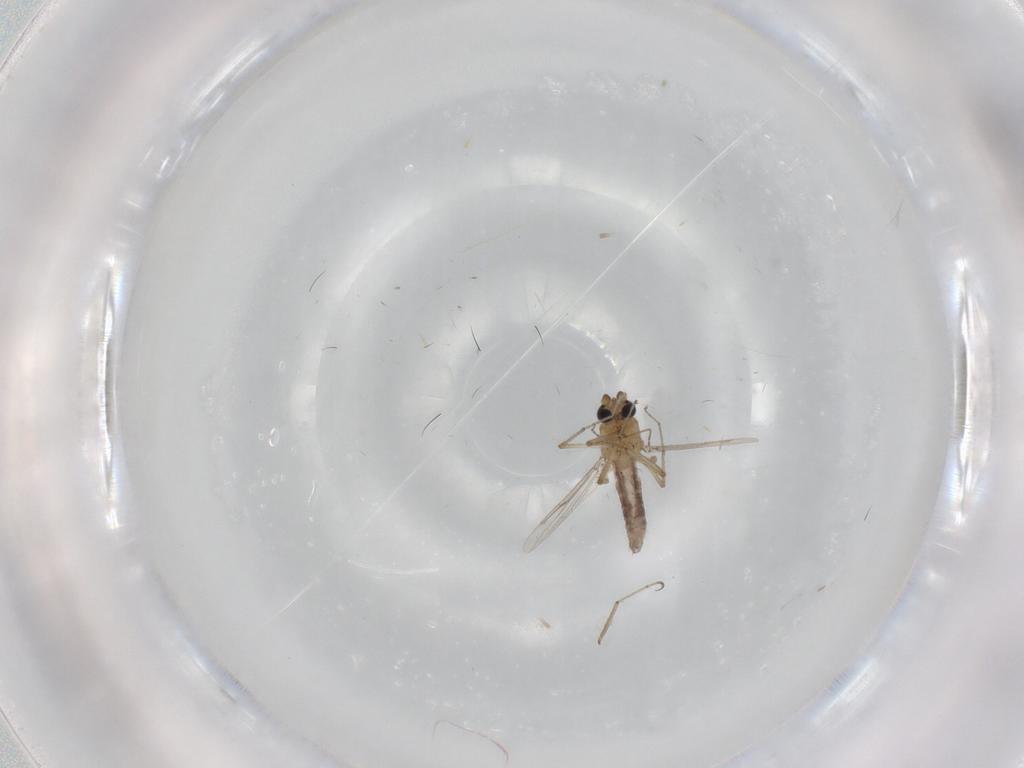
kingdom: Animalia
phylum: Arthropoda
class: Insecta
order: Diptera
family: Ceratopogonidae
